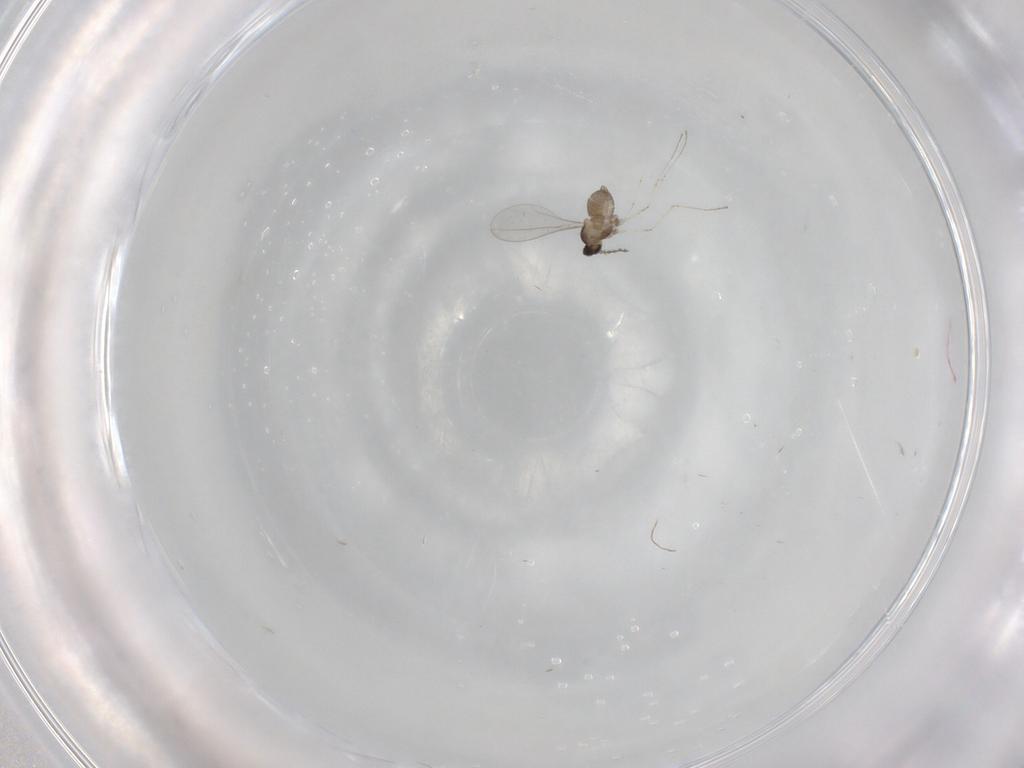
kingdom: Animalia
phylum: Arthropoda
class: Insecta
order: Diptera
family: Cecidomyiidae
